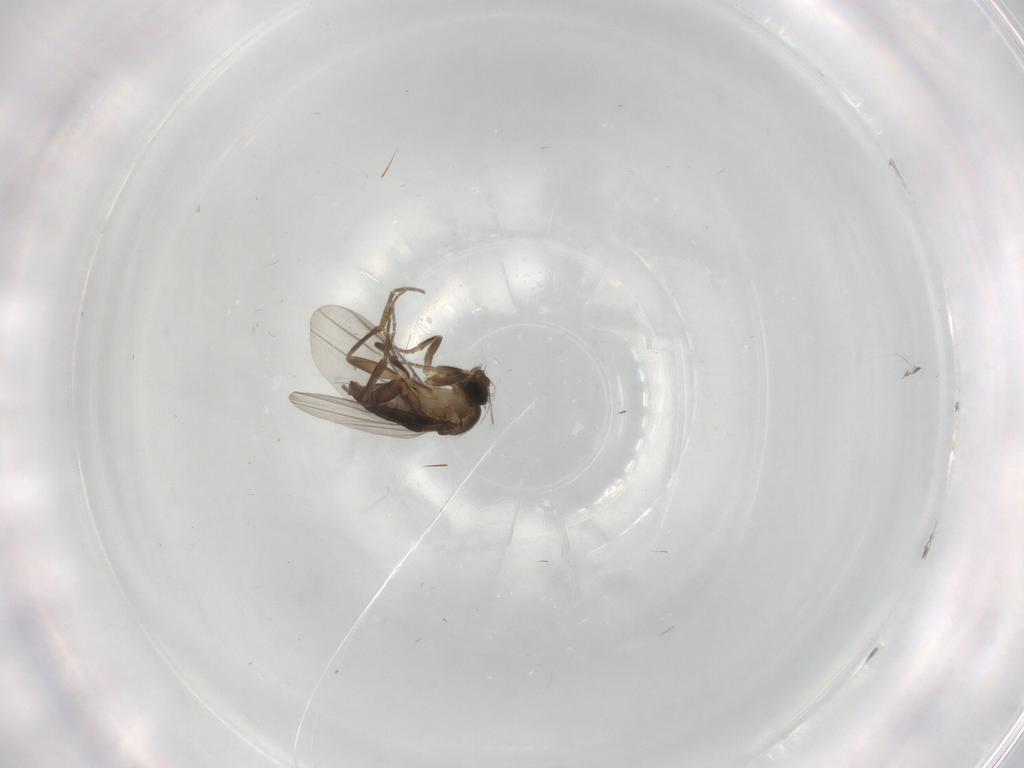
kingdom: Animalia
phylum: Arthropoda
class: Insecta
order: Diptera
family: Phoridae
